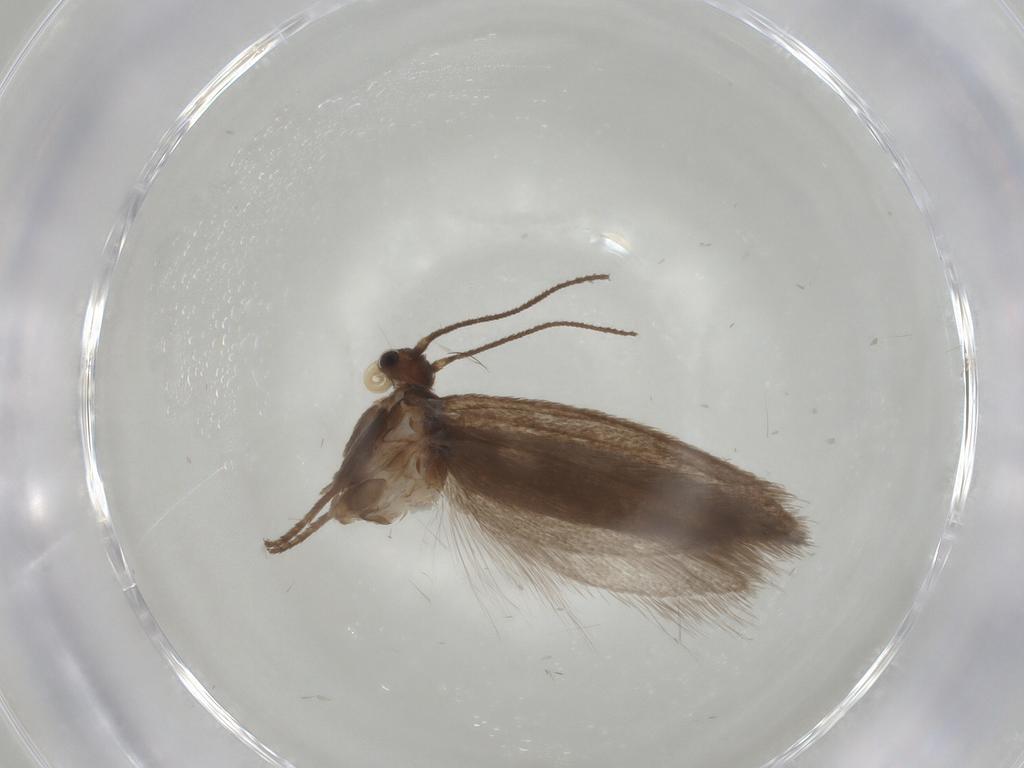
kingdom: Animalia
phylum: Arthropoda
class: Insecta
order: Lepidoptera
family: Limacodidae
